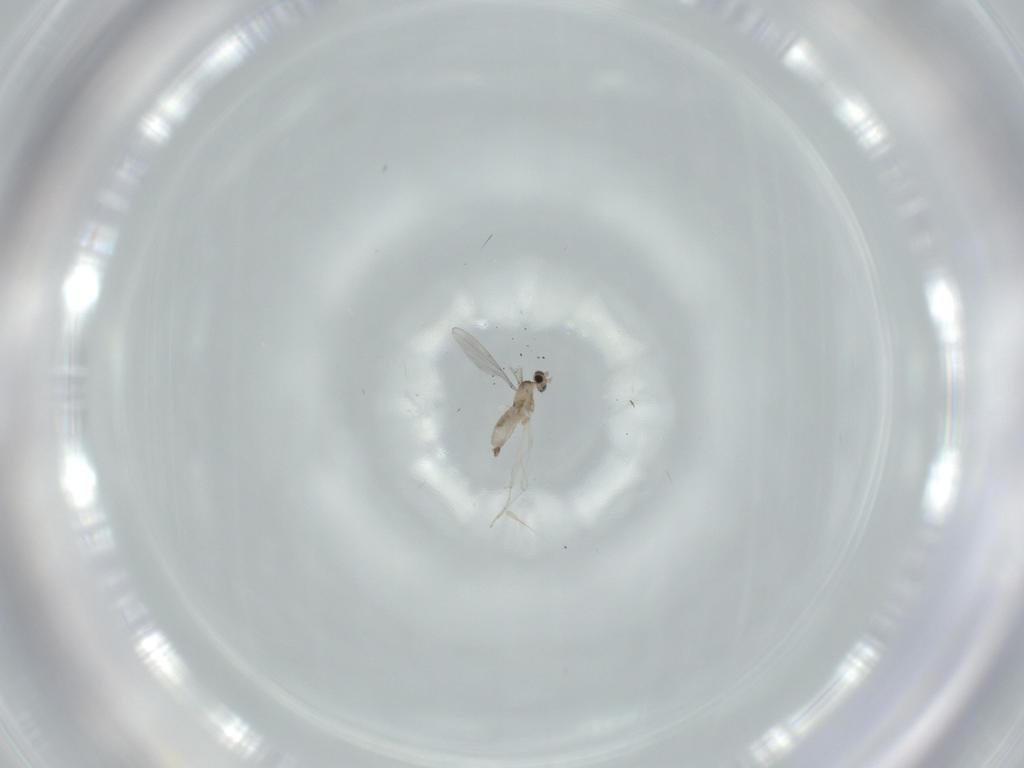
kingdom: Animalia
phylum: Arthropoda
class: Insecta
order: Diptera
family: Cecidomyiidae
